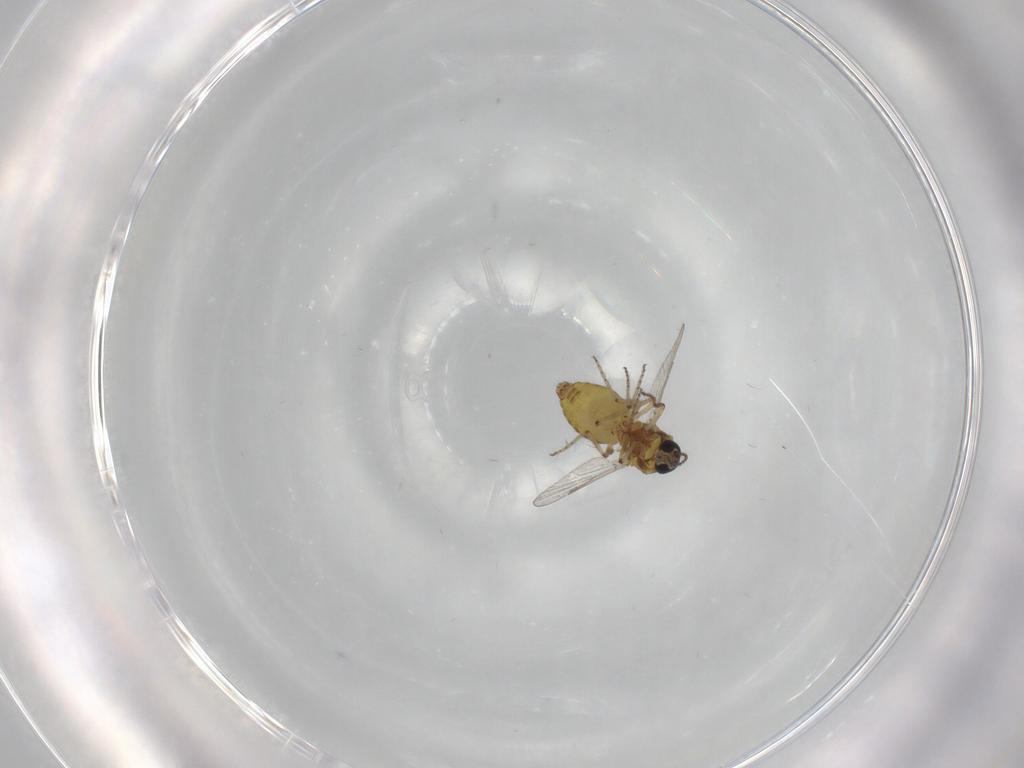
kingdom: Animalia
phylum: Arthropoda
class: Insecta
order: Diptera
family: Ceratopogonidae
